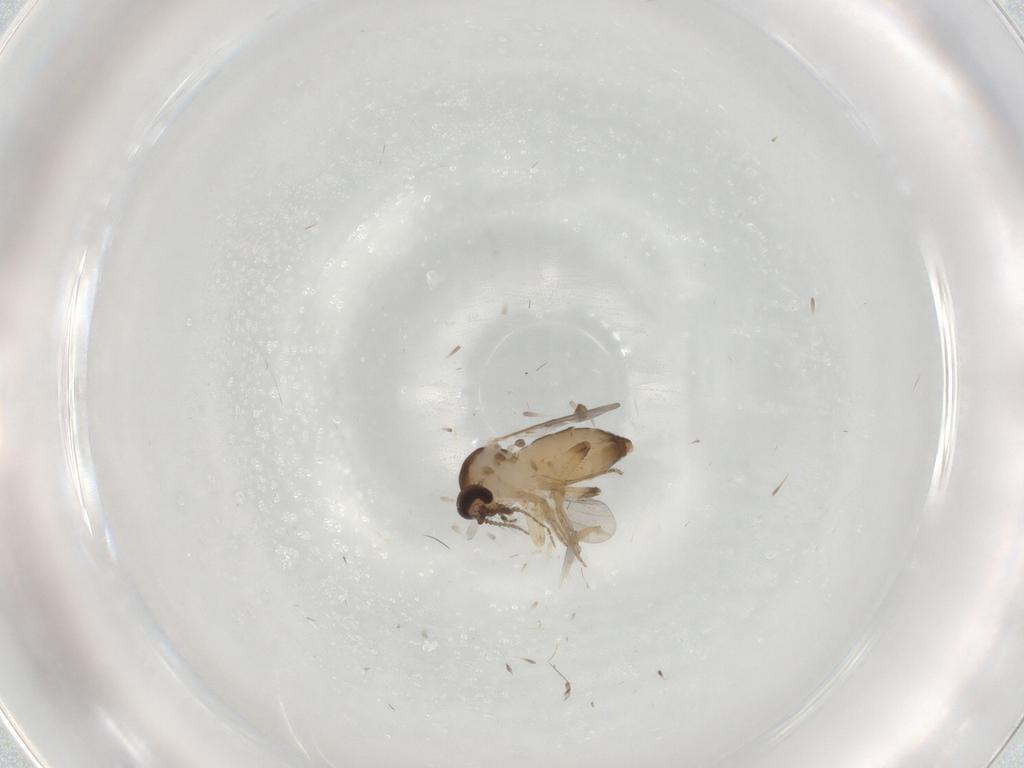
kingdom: Animalia
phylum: Arthropoda
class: Insecta
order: Diptera
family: Ceratopogonidae
